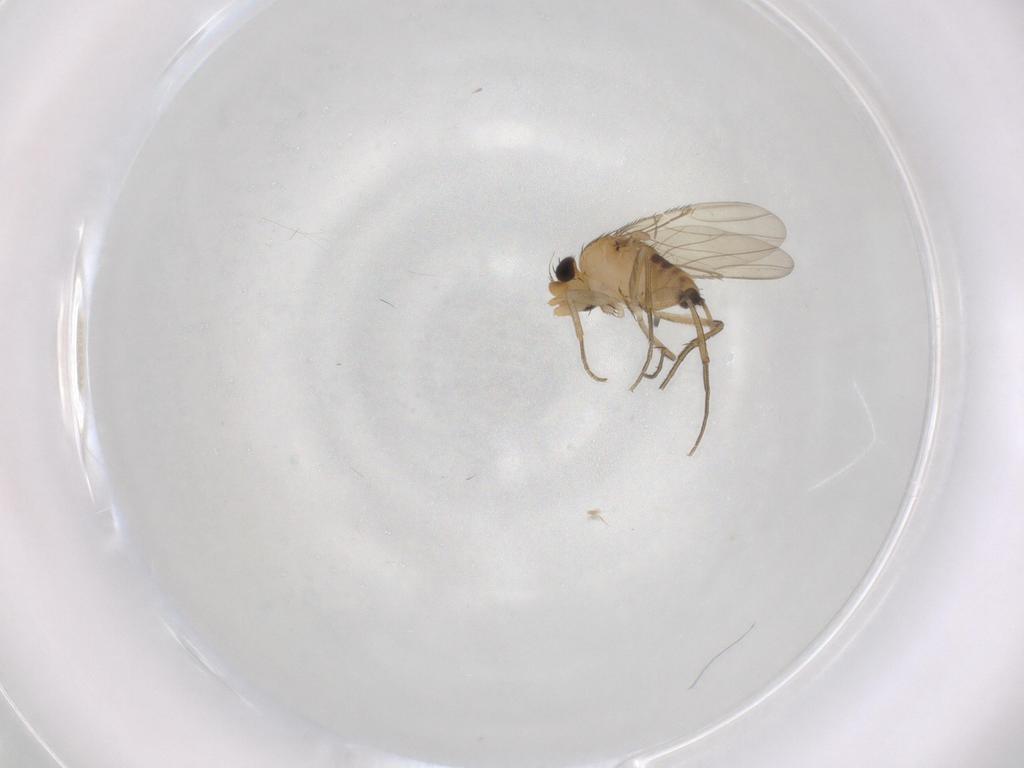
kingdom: Animalia
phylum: Arthropoda
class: Insecta
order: Diptera
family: Phoridae
